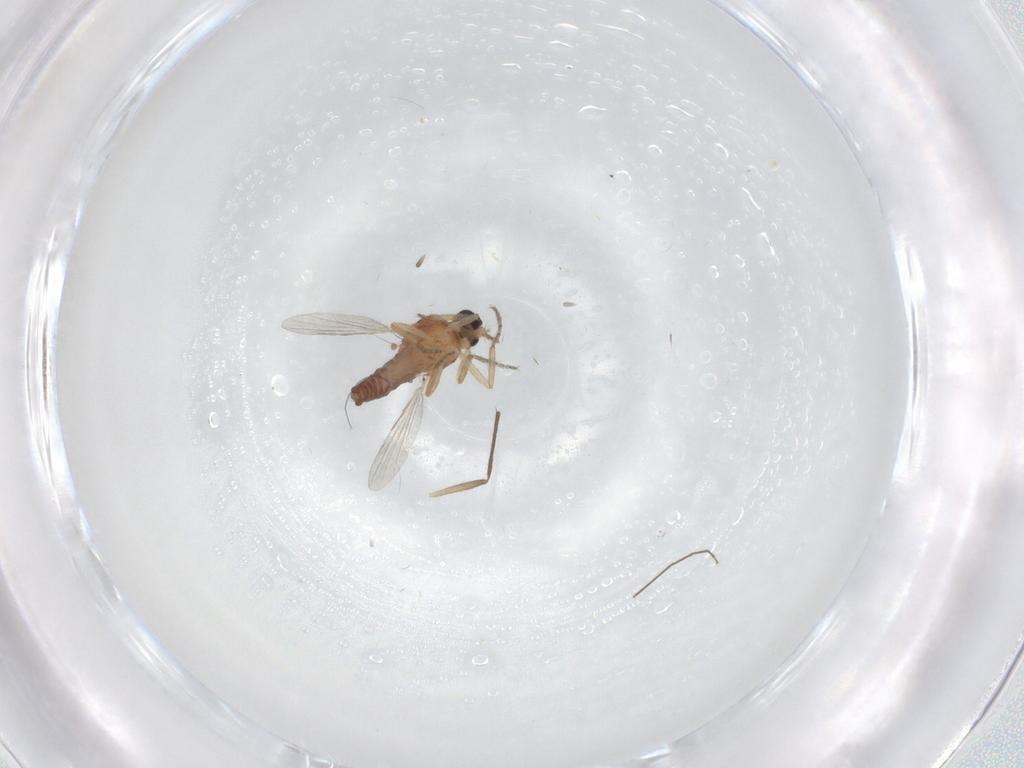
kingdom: Animalia
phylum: Arthropoda
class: Insecta
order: Diptera
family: Ceratopogonidae
